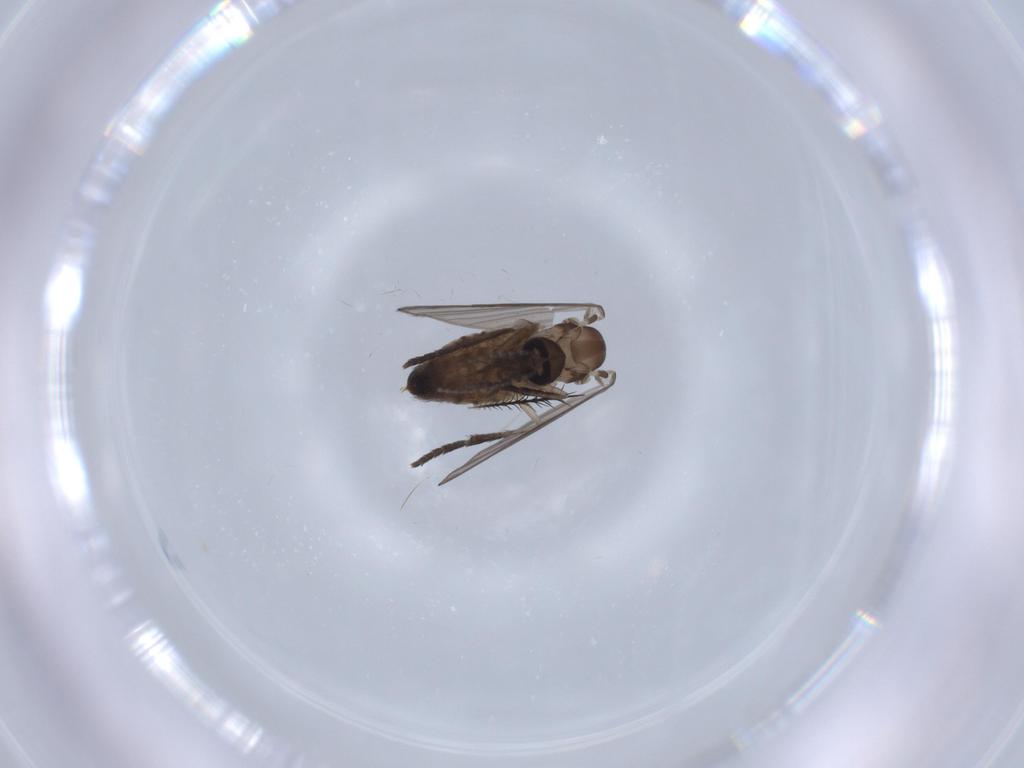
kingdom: Animalia
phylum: Arthropoda
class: Insecta
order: Diptera
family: Psychodidae
